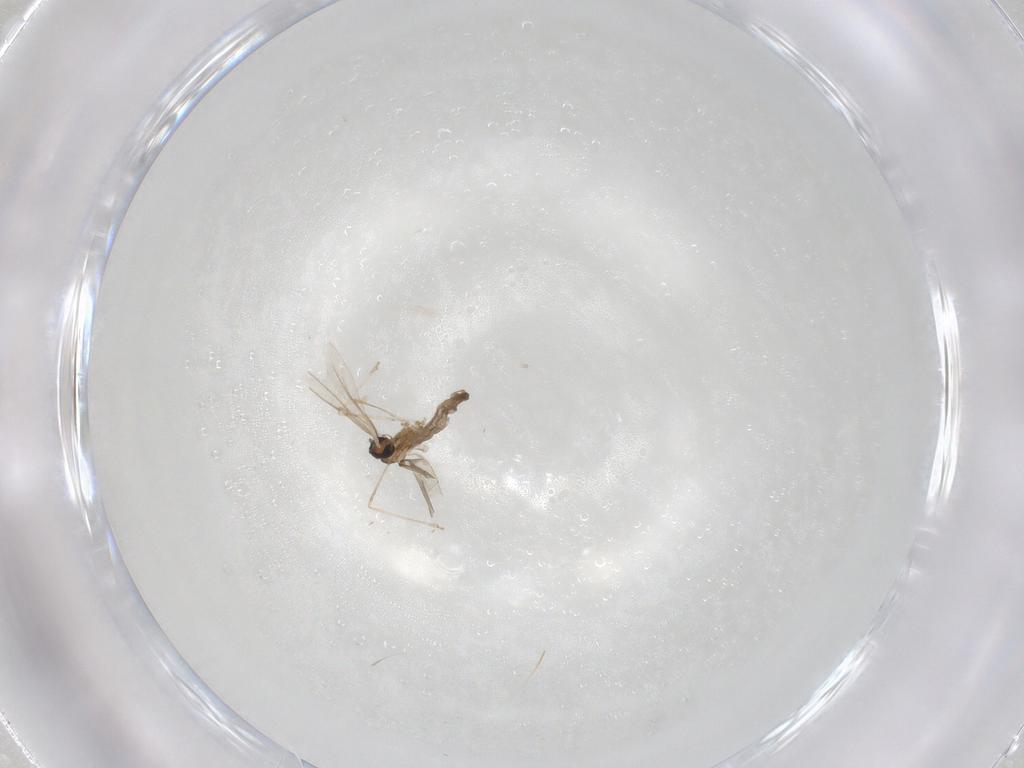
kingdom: Animalia
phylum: Arthropoda
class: Insecta
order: Diptera
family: Cecidomyiidae
